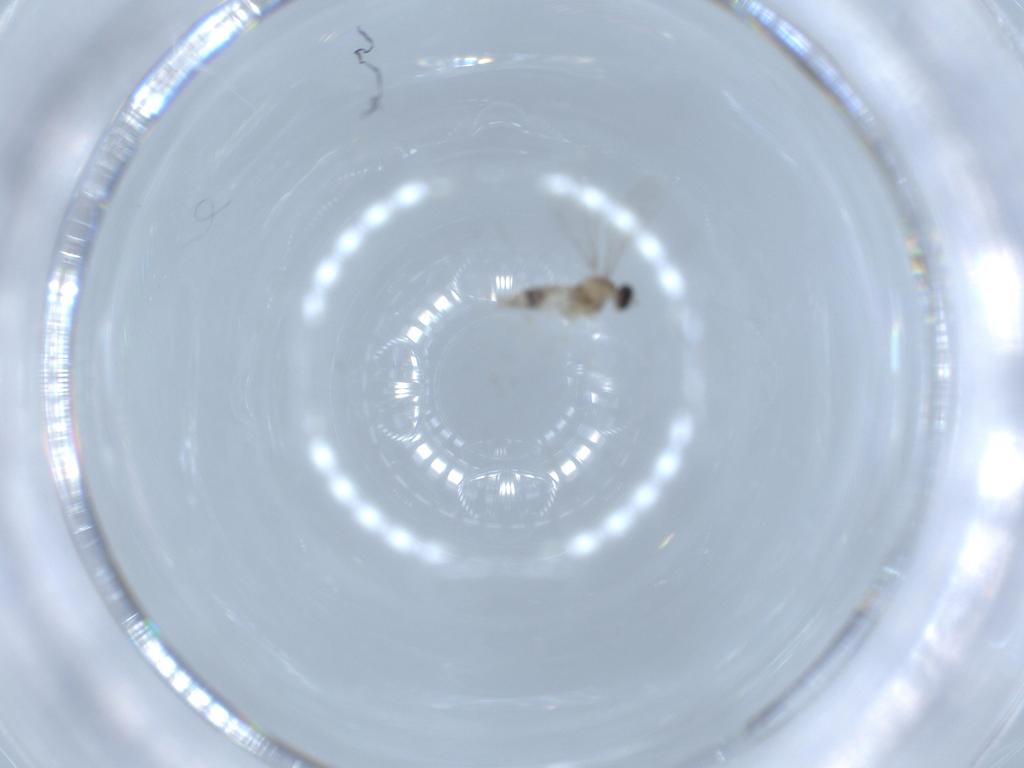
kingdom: Animalia
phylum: Arthropoda
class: Insecta
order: Diptera
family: Cecidomyiidae
